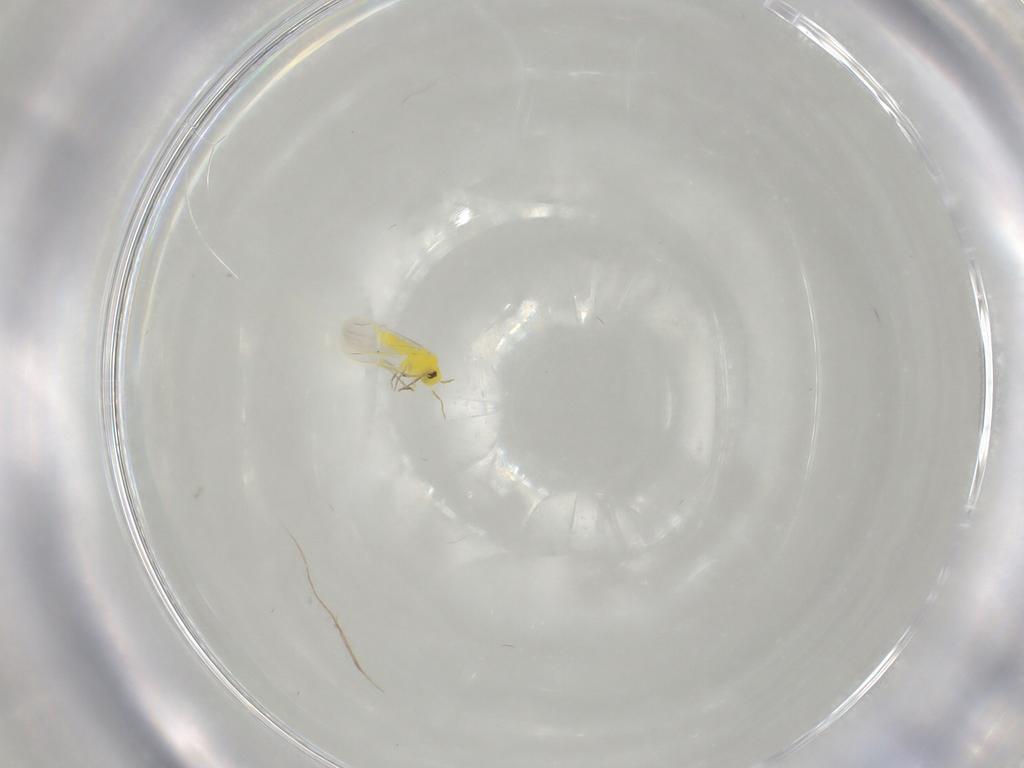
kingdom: Animalia
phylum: Arthropoda
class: Insecta
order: Hemiptera
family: Aleyrodidae
